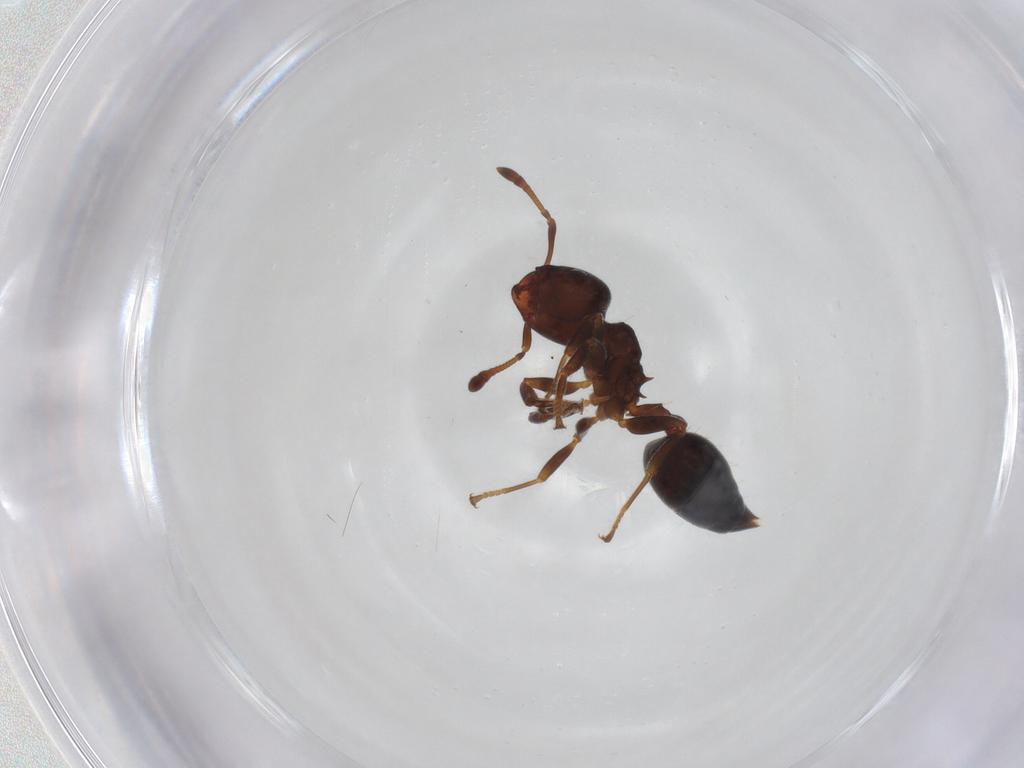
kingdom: Animalia
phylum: Arthropoda
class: Insecta
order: Hymenoptera
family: Formicidae
